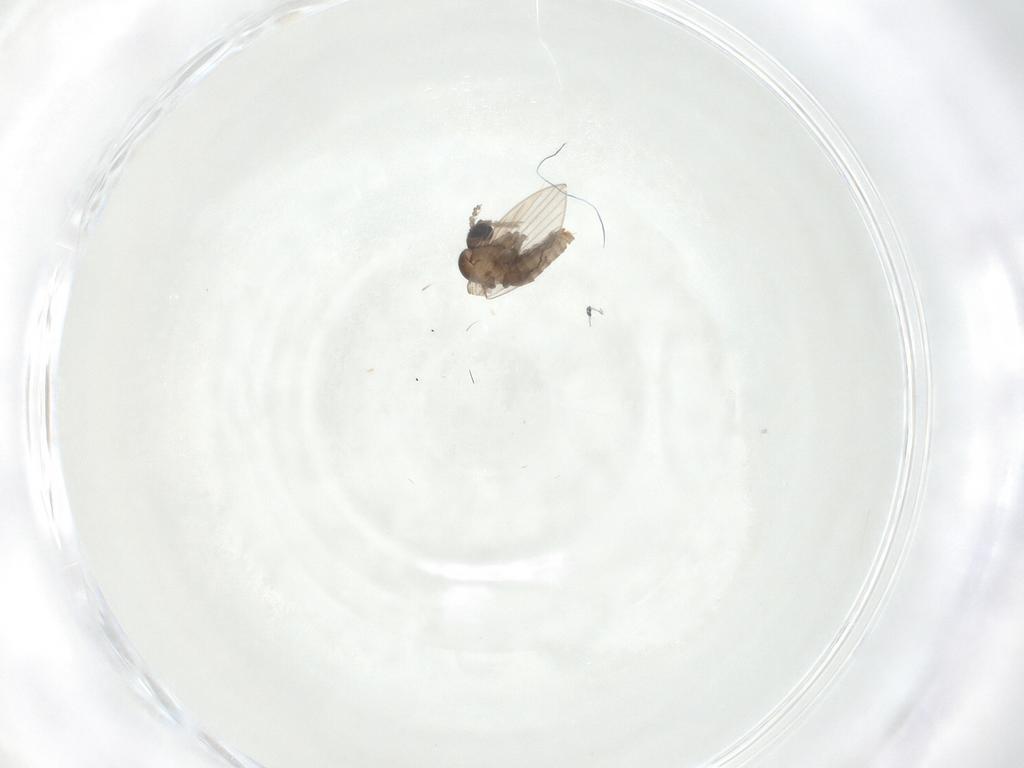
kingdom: Animalia
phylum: Arthropoda
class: Insecta
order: Diptera
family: Psychodidae
